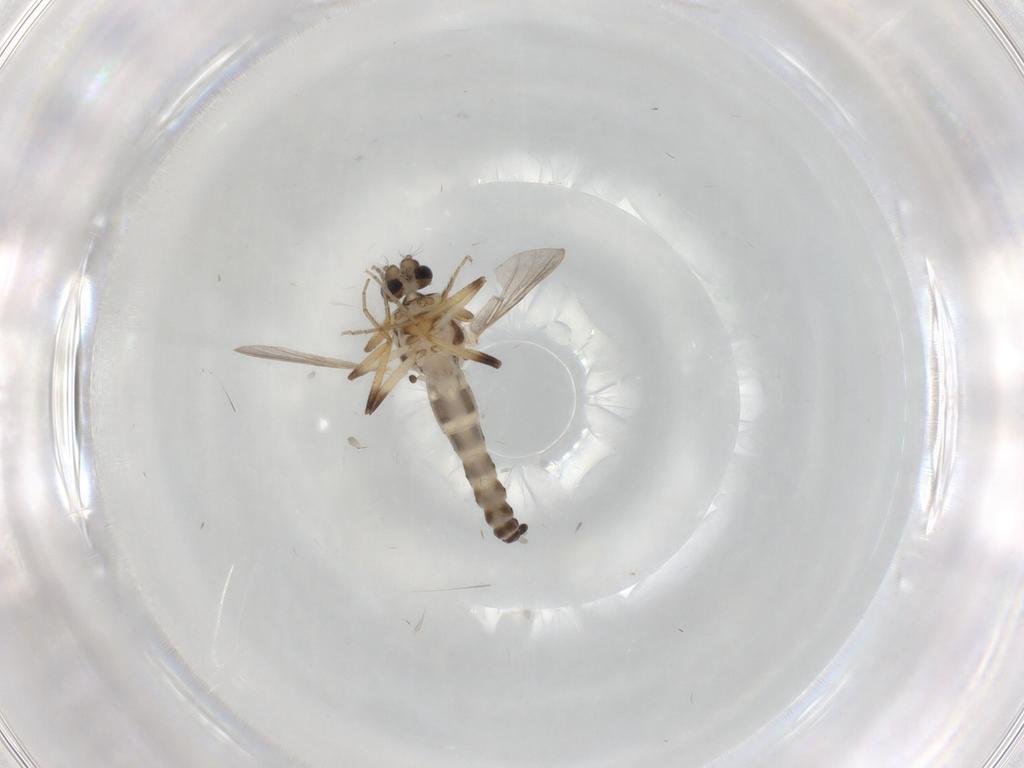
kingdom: Animalia
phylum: Arthropoda
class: Insecta
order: Diptera
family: Ceratopogonidae
